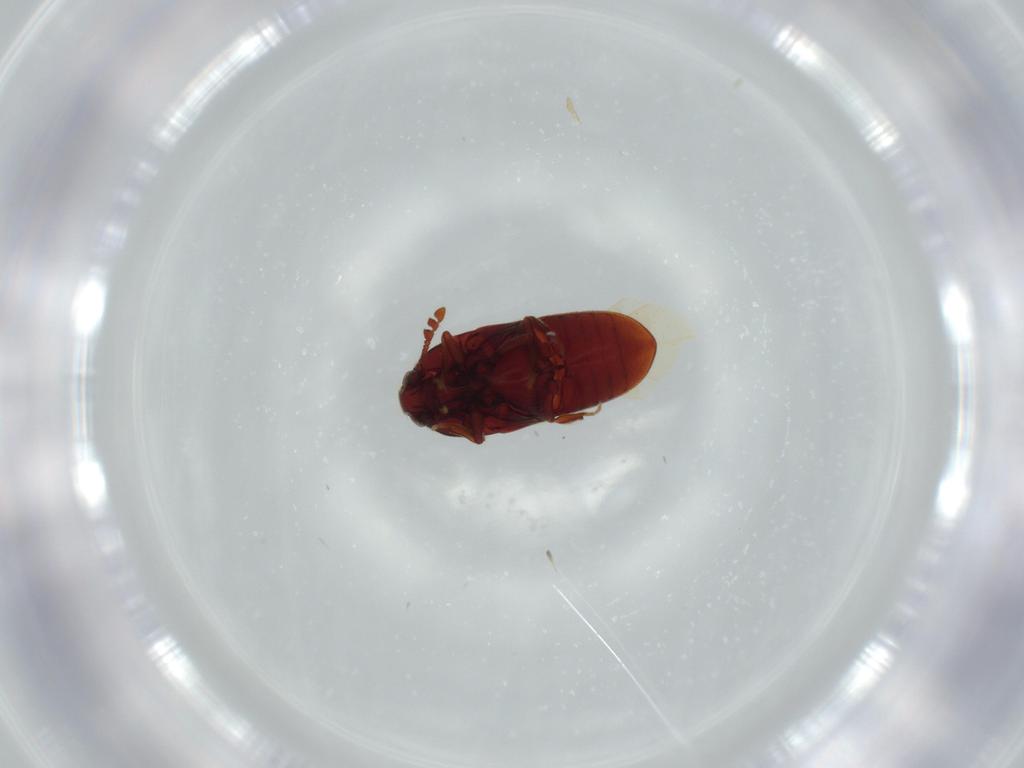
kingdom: Animalia
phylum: Arthropoda
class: Insecta
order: Coleoptera
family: Throscidae
